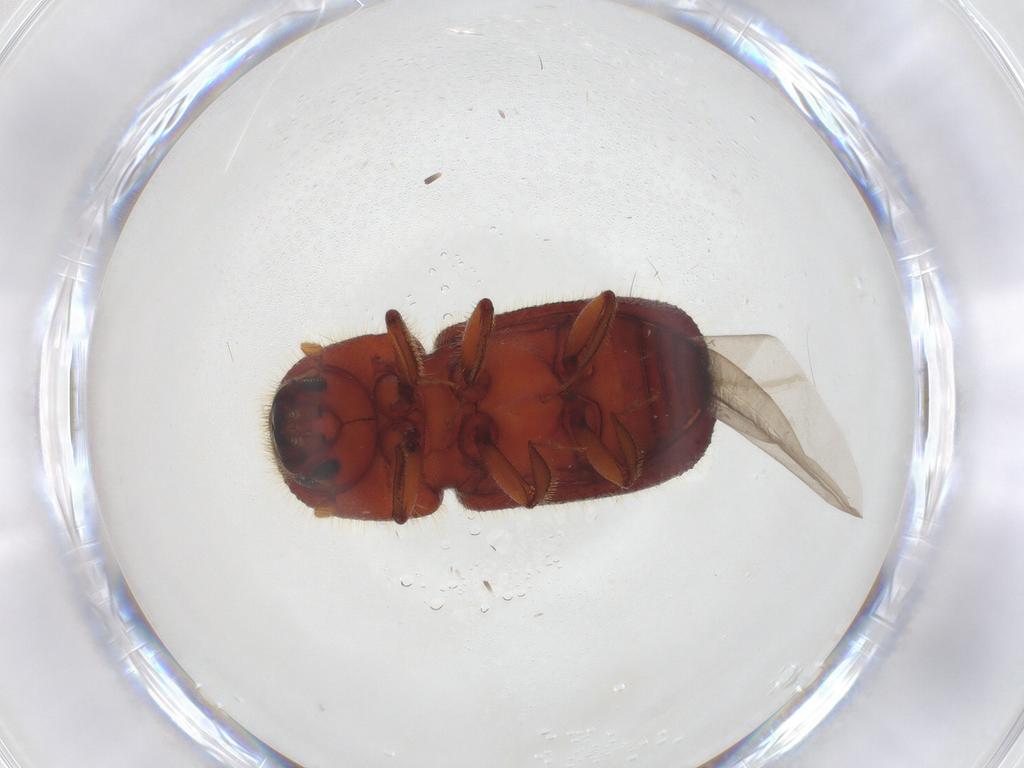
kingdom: Animalia
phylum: Arthropoda
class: Insecta
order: Coleoptera
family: Curculionidae
